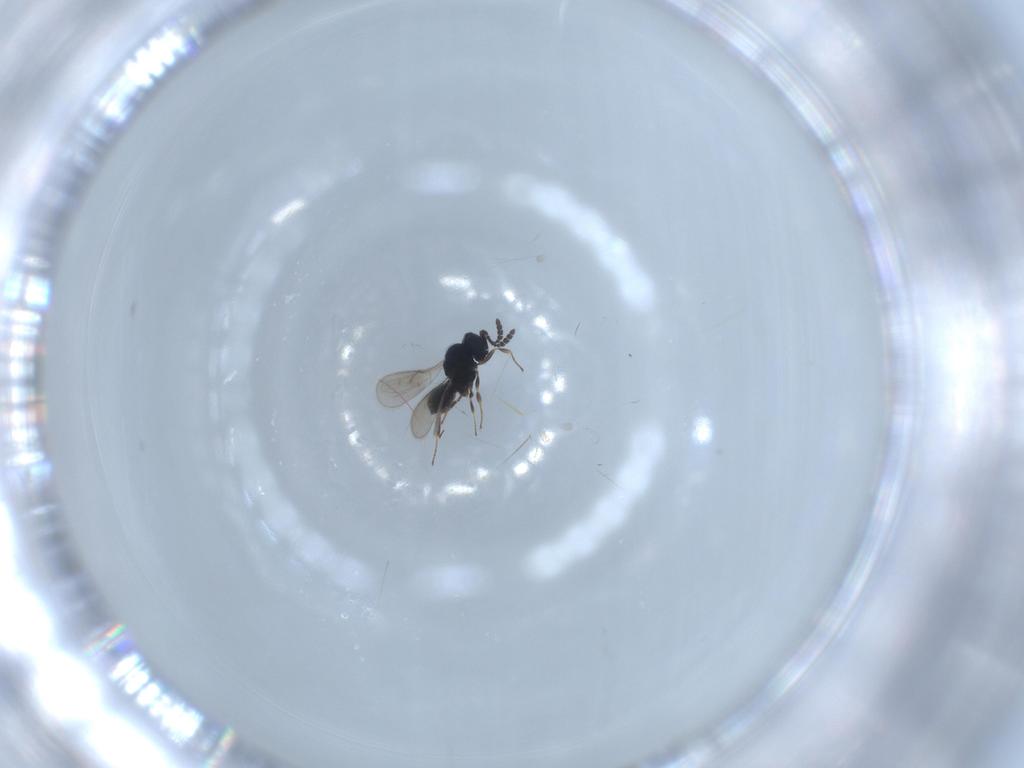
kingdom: Animalia
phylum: Arthropoda
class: Insecta
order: Hymenoptera
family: Scelionidae
